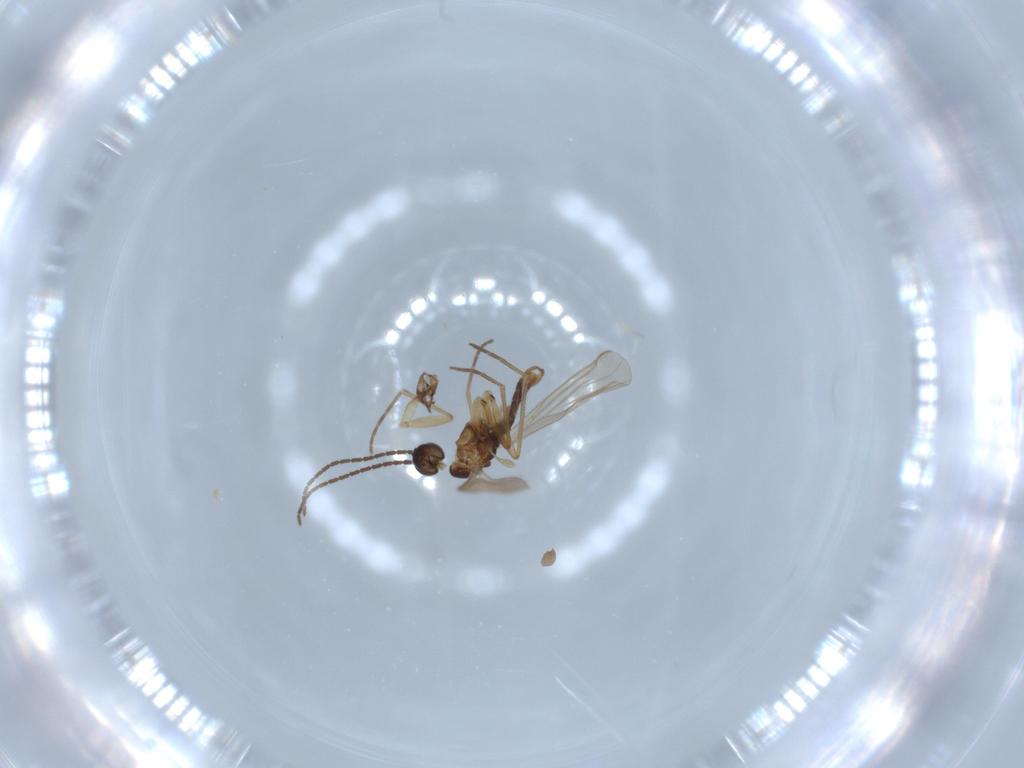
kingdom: Animalia
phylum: Arthropoda
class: Insecta
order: Diptera
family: Sciaridae
